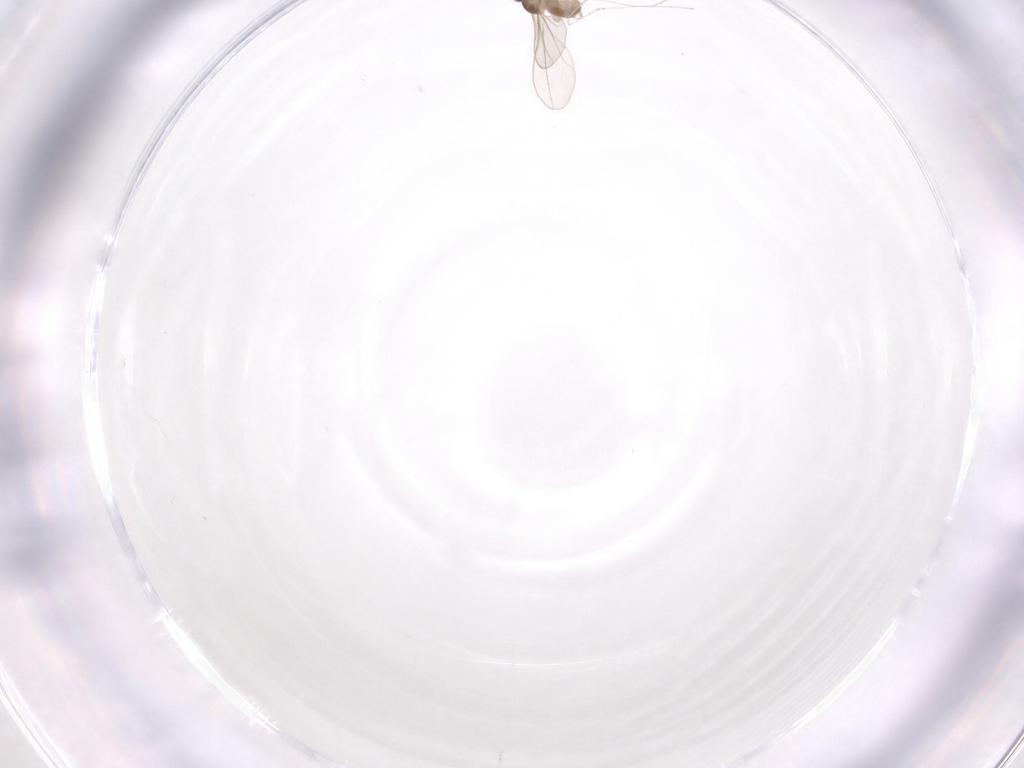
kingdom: Animalia
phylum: Arthropoda
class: Insecta
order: Diptera
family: Cecidomyiidae
